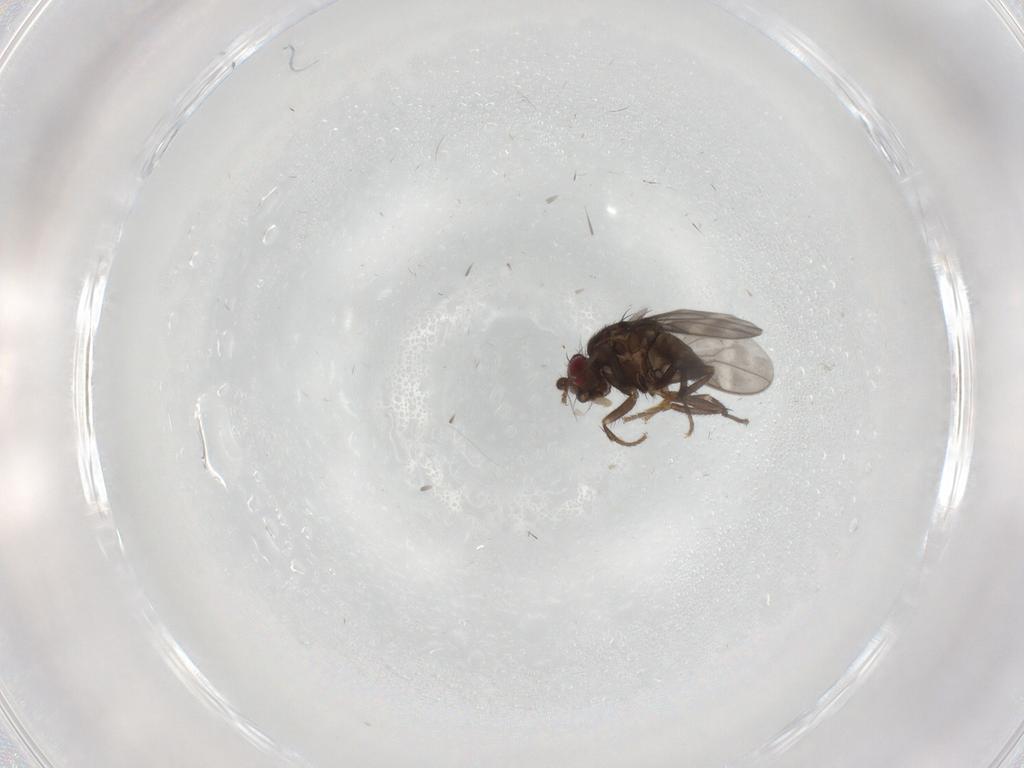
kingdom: Animalia
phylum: Arthropoda
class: Insecta
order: Diptera
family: Sphaeroceridae
